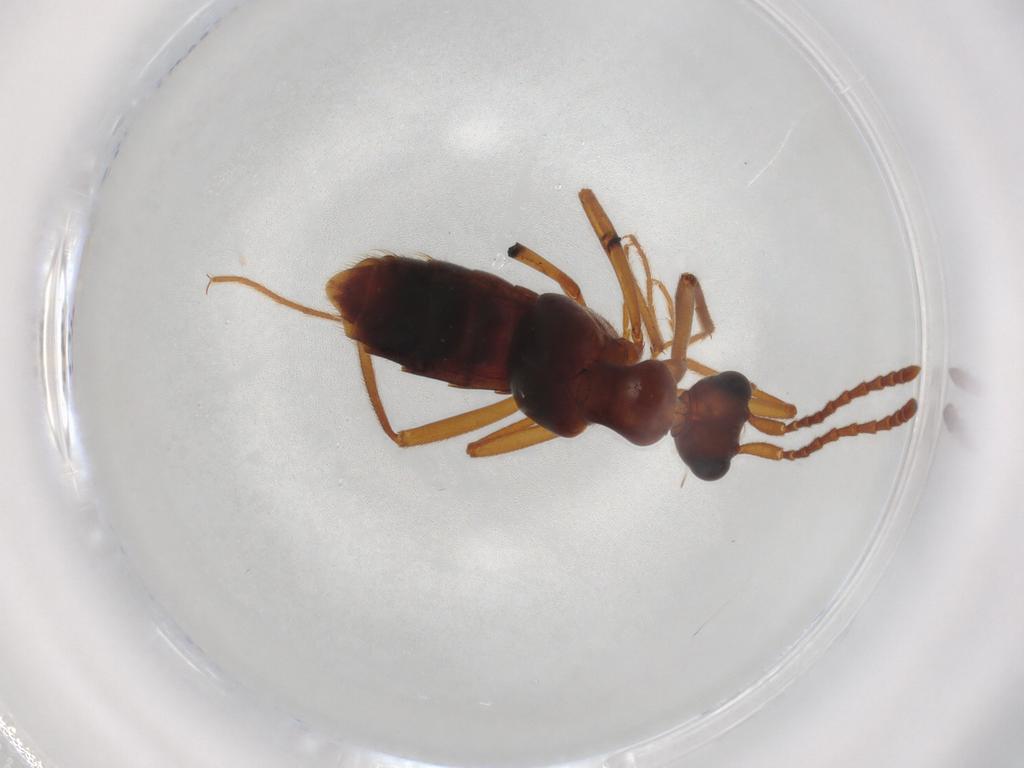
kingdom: Animalia
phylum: Arthropoda
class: Insecta
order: Coleoptera
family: Staphylinidae
